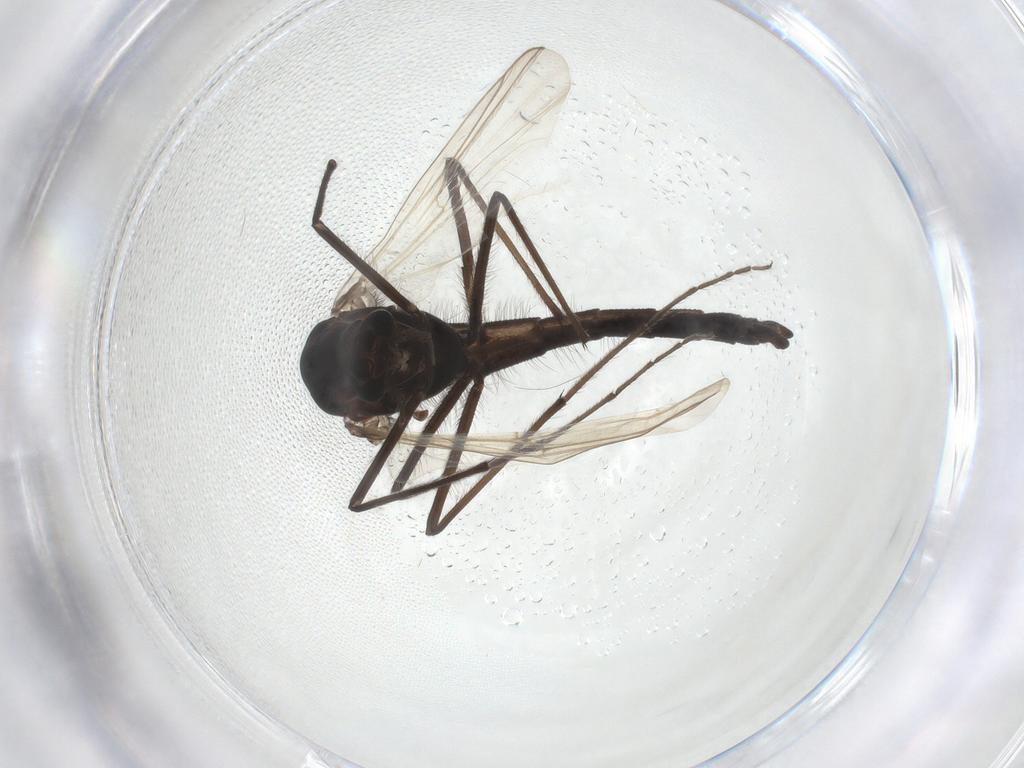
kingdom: Animalia
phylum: Arthropoda
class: Insecta
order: Diptera
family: Chironomidae
